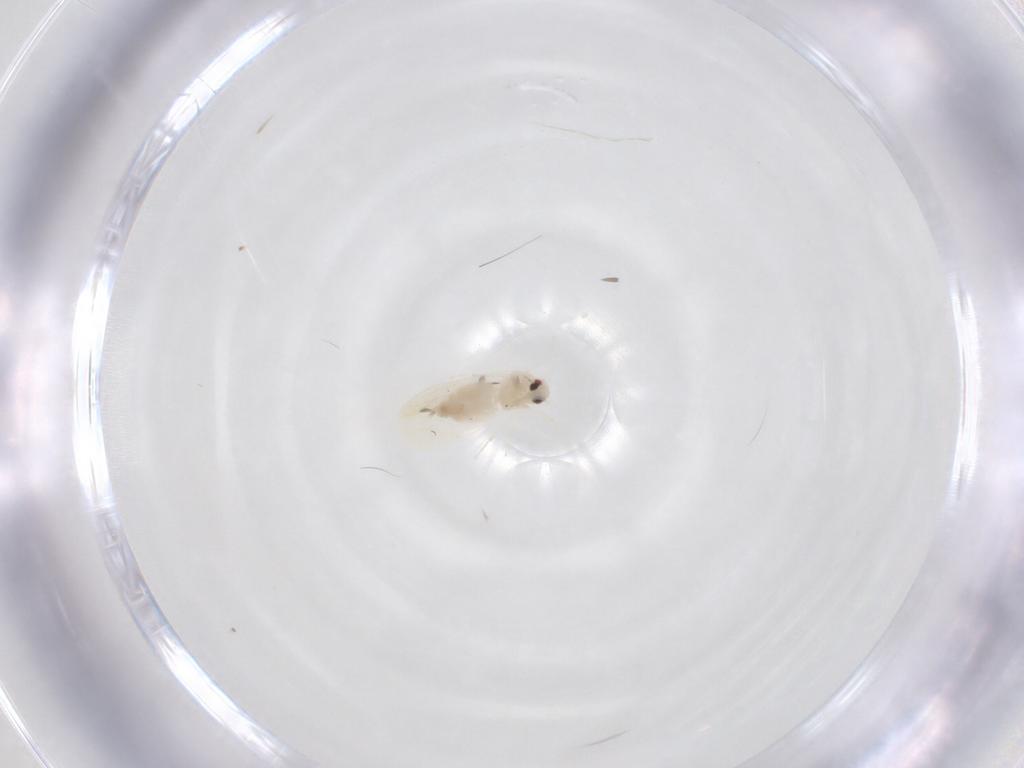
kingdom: Animalia
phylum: Arthropoda
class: Insecta
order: Hemiptera
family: Aleyrodidae
